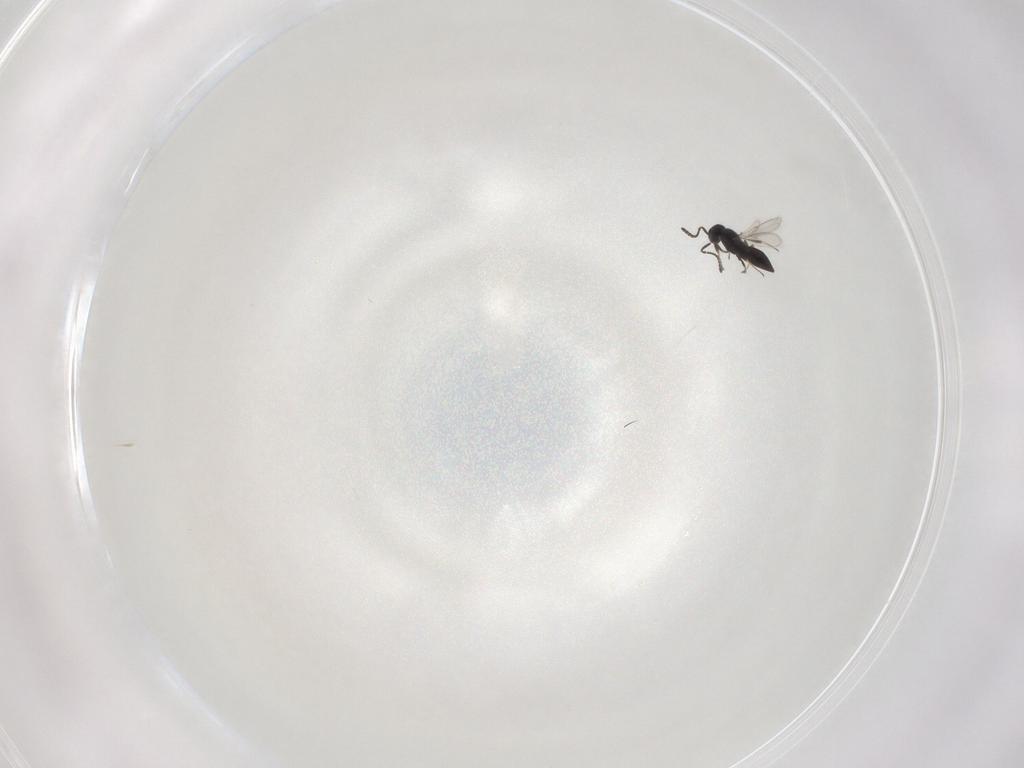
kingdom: Animalia
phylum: Arthropoda
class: Insecta
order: Hymenoptera
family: Scelionidae
